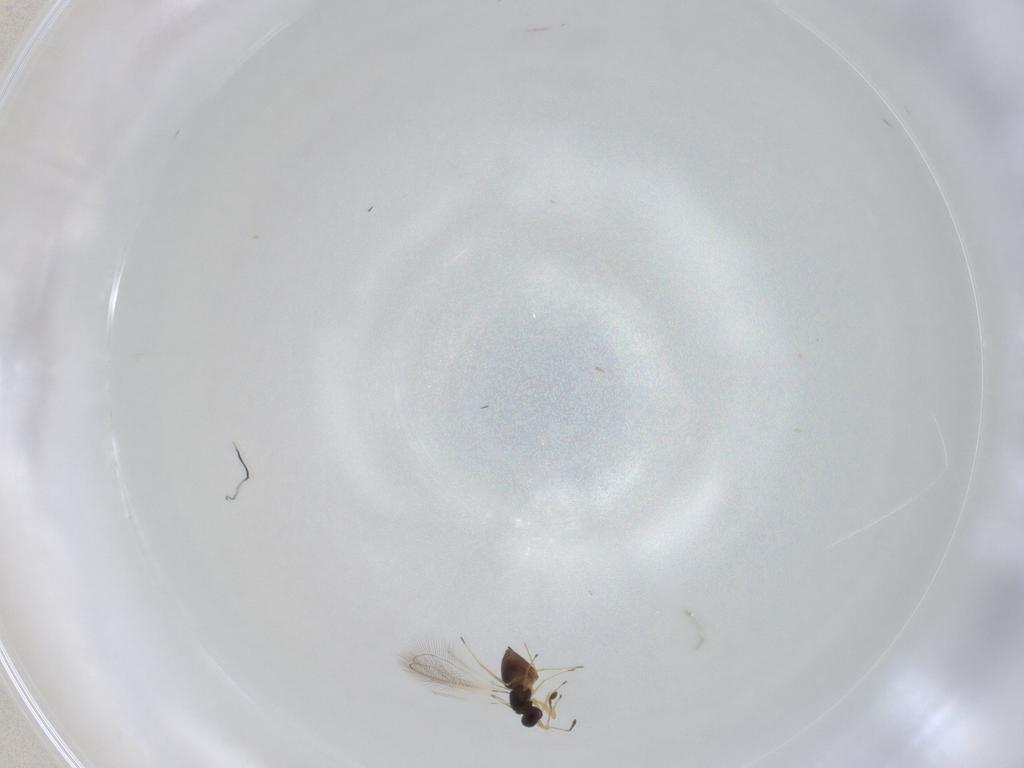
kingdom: Animalia
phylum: Arthropoda
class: Insecta
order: Hymenoptera
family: Mymaridae
